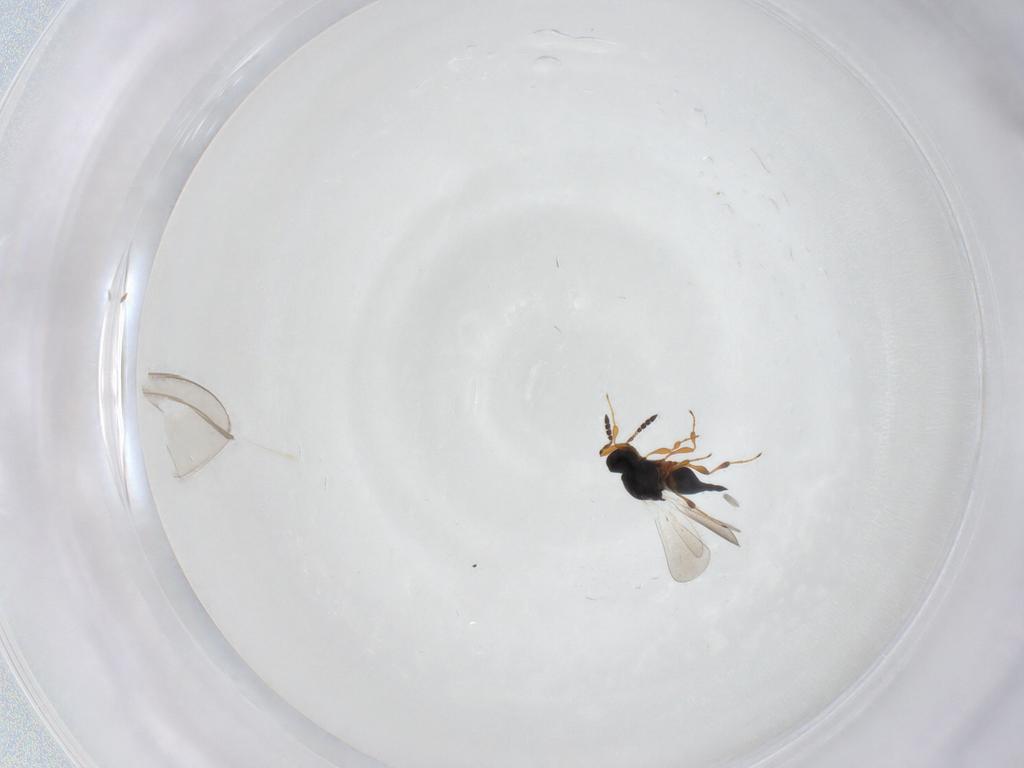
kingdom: Animalia
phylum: Arthropoda
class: Insecta
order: Hymenoptera
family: Platygastridae
